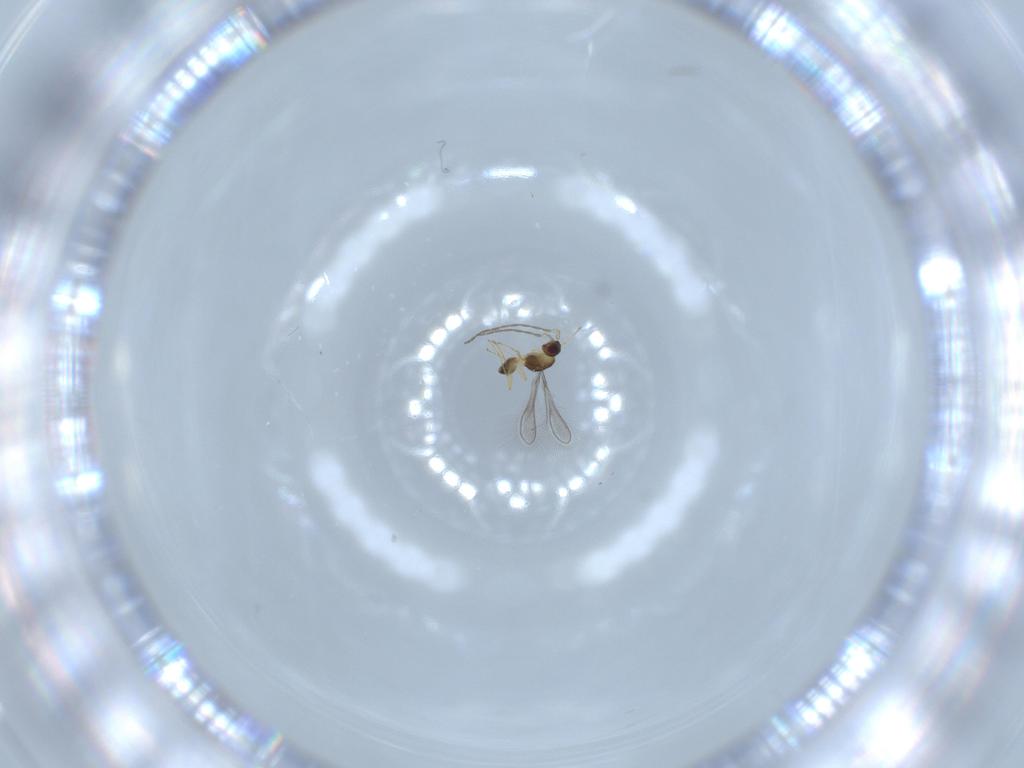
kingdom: Animalia
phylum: Arthropoda
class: Insecta
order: Hymenoptera
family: Mymaridae
